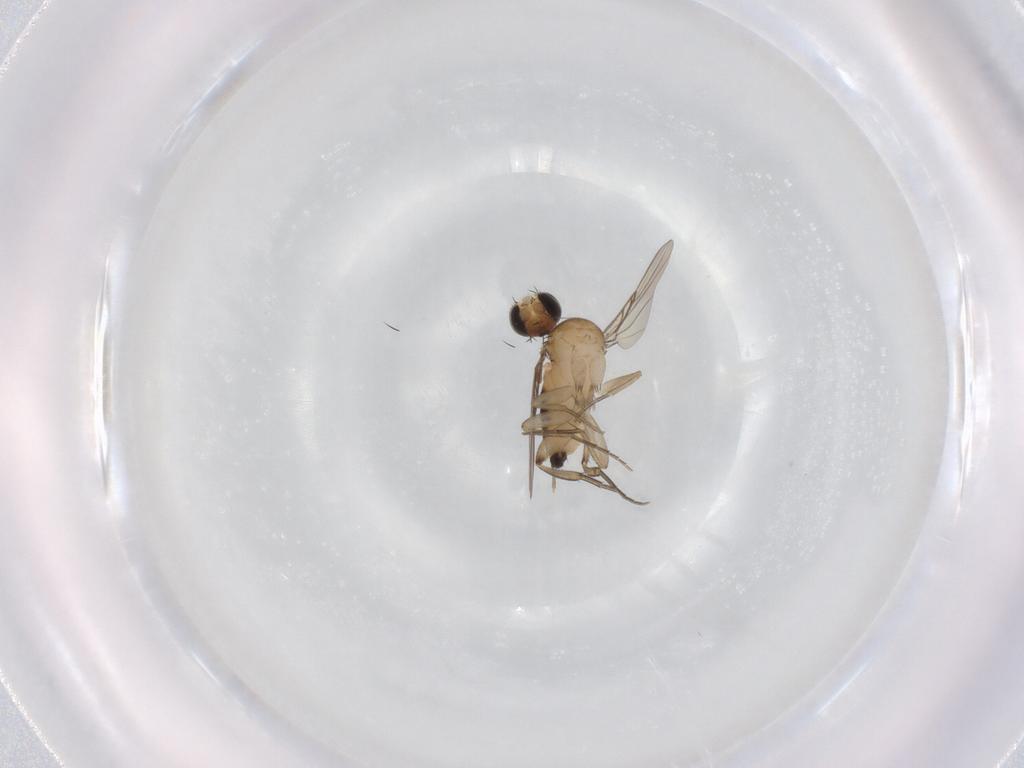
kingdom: Animalia
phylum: Arthropoda
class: Insecta
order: Diptera
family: Phoridae
